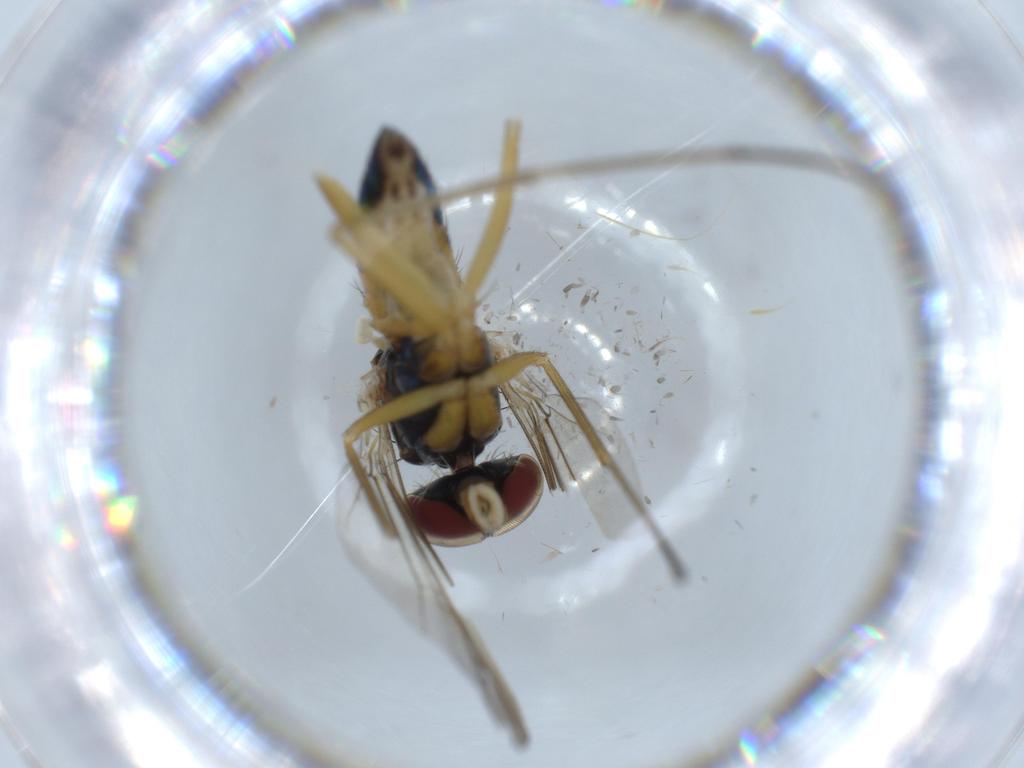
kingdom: Animalia
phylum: Arthropoda
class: Insecta
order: Diptera
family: Cecidomyiidae
